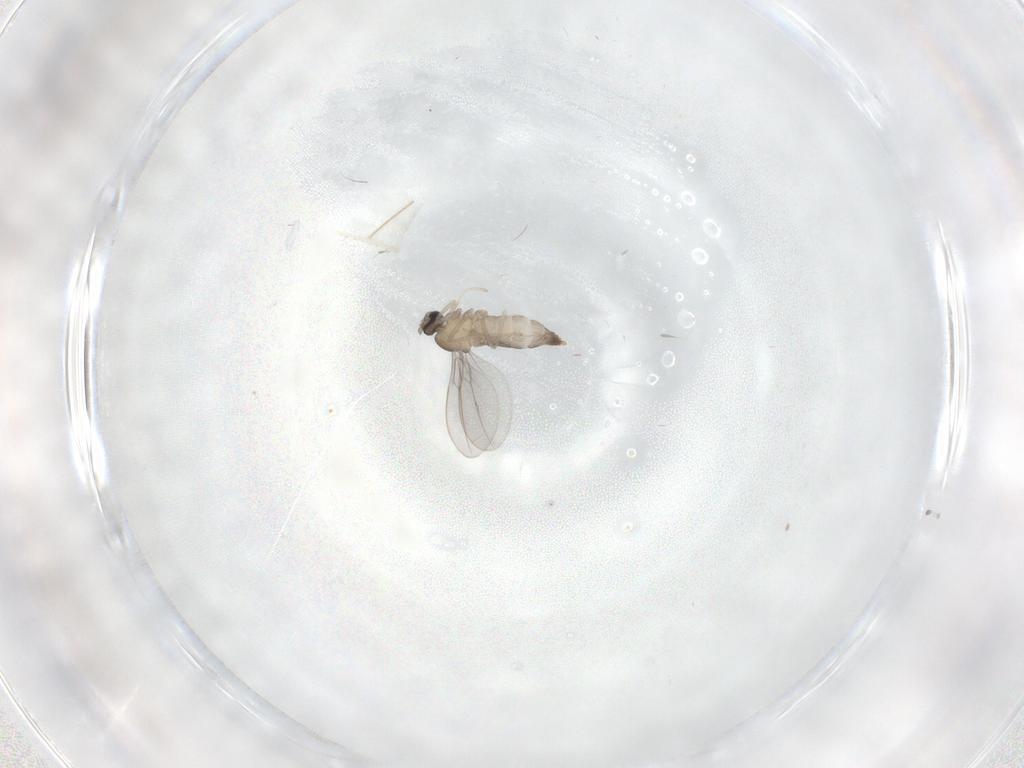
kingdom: Animalia
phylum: Arthropoda
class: Insecta
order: Diptera
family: Cecidomyiidae
